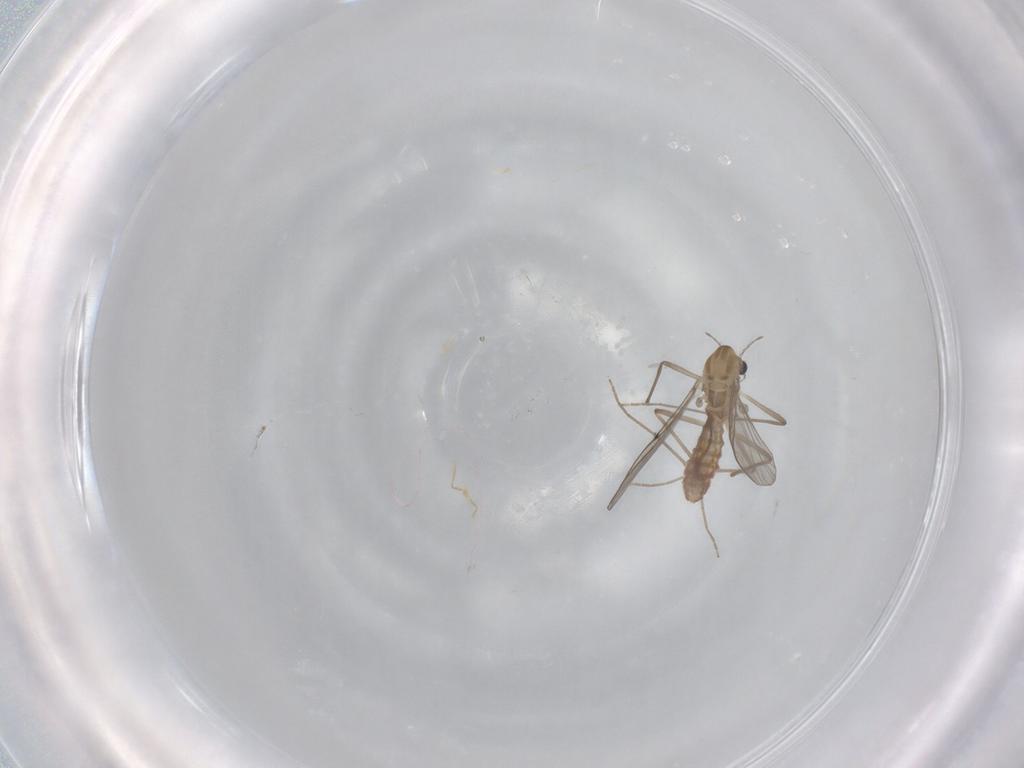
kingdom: Animalia
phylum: Arthropoda
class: Insecta
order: Diptera
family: Chironomidae
